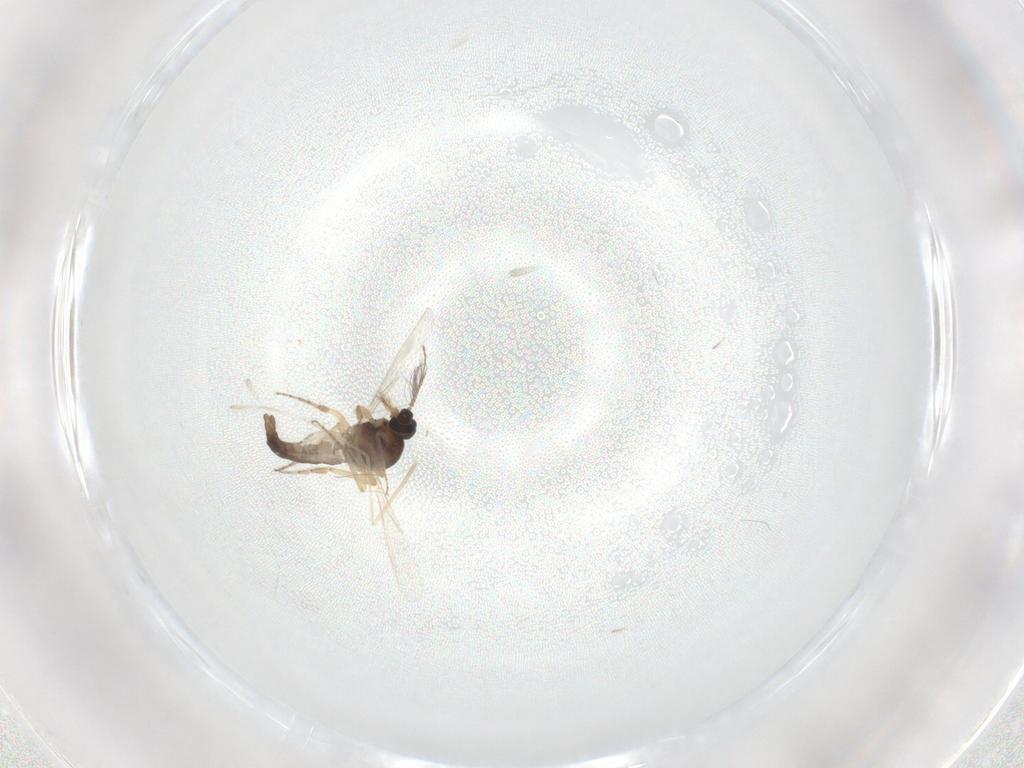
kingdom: Animalia
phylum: Arthropoda
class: Insecta
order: Diptera
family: Ceratopogonidae
